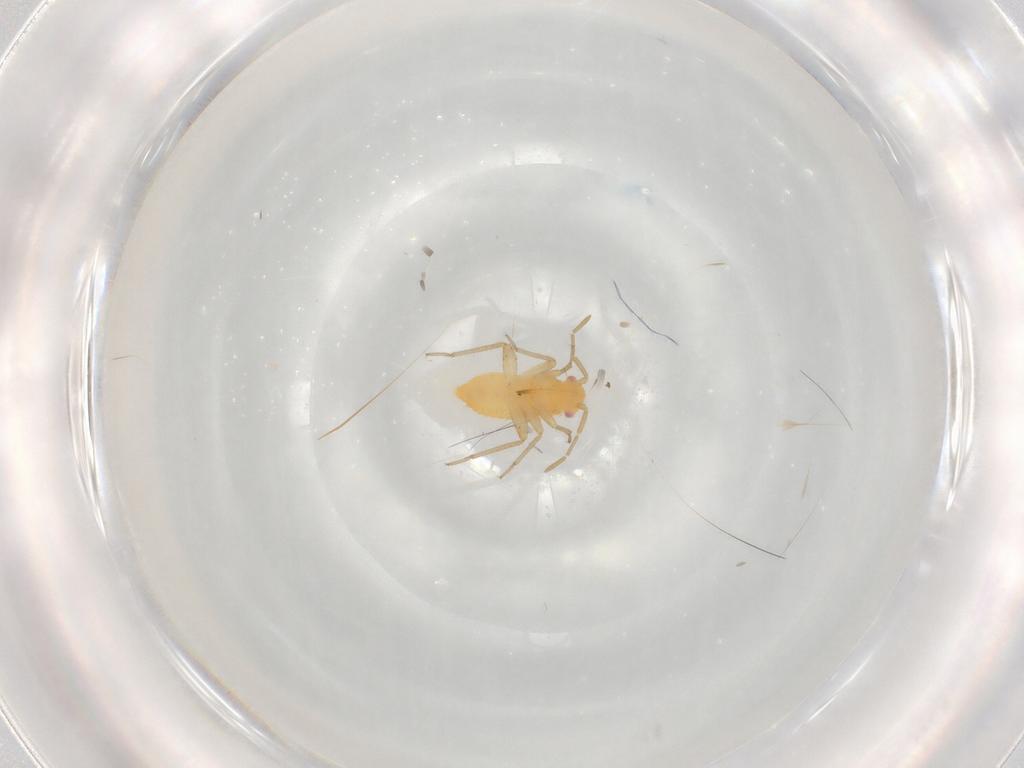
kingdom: Animalia
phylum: Arthropoda
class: Insecta
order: Hemiptera
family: Miridae
